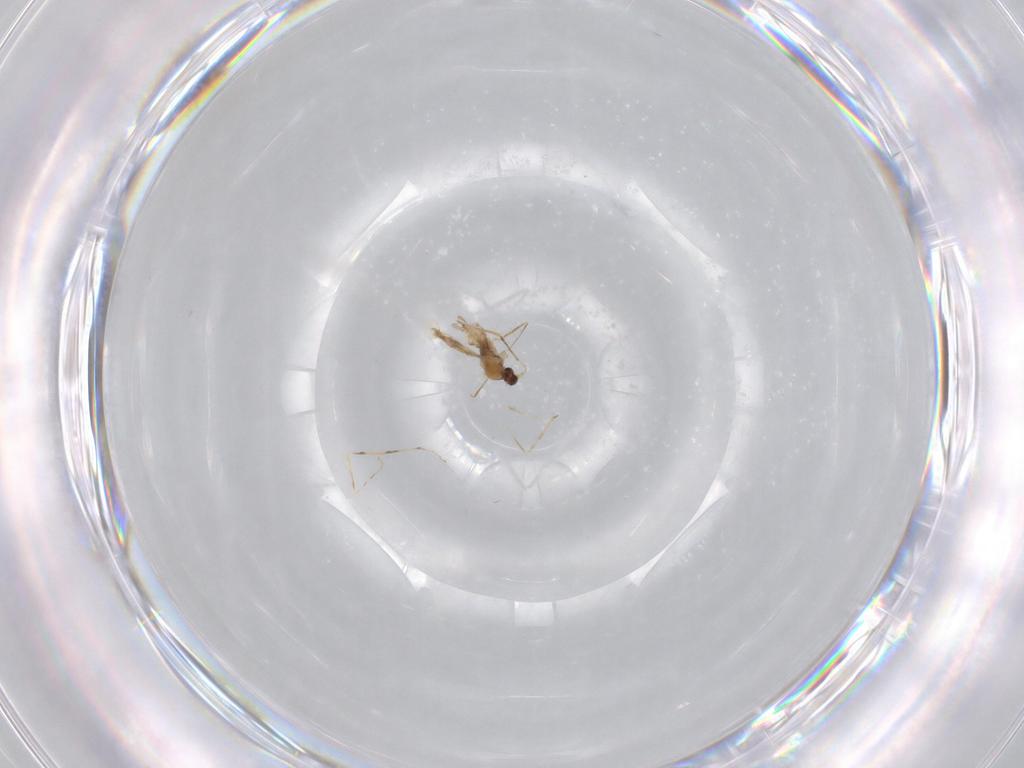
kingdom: Animalia
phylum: Arthropoda
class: Insecta
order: Diptera
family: Cecidomyiidae
